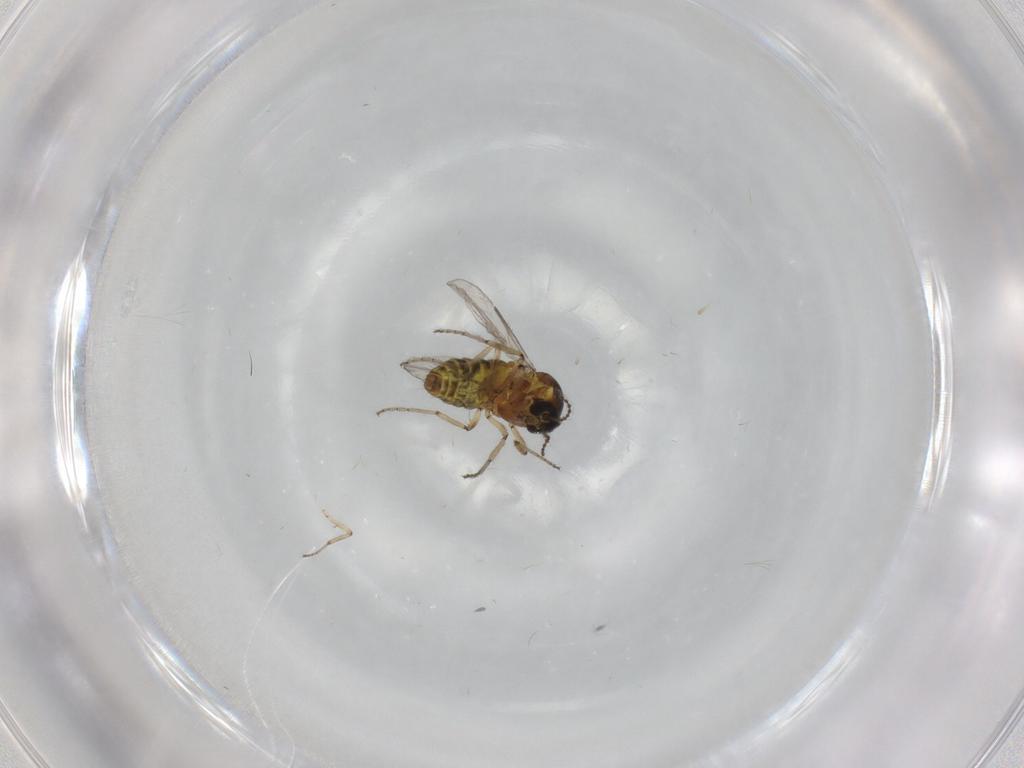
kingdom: Animalia
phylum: Arthropoda
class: Insecta
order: Diptera
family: Ceratopogonidae
